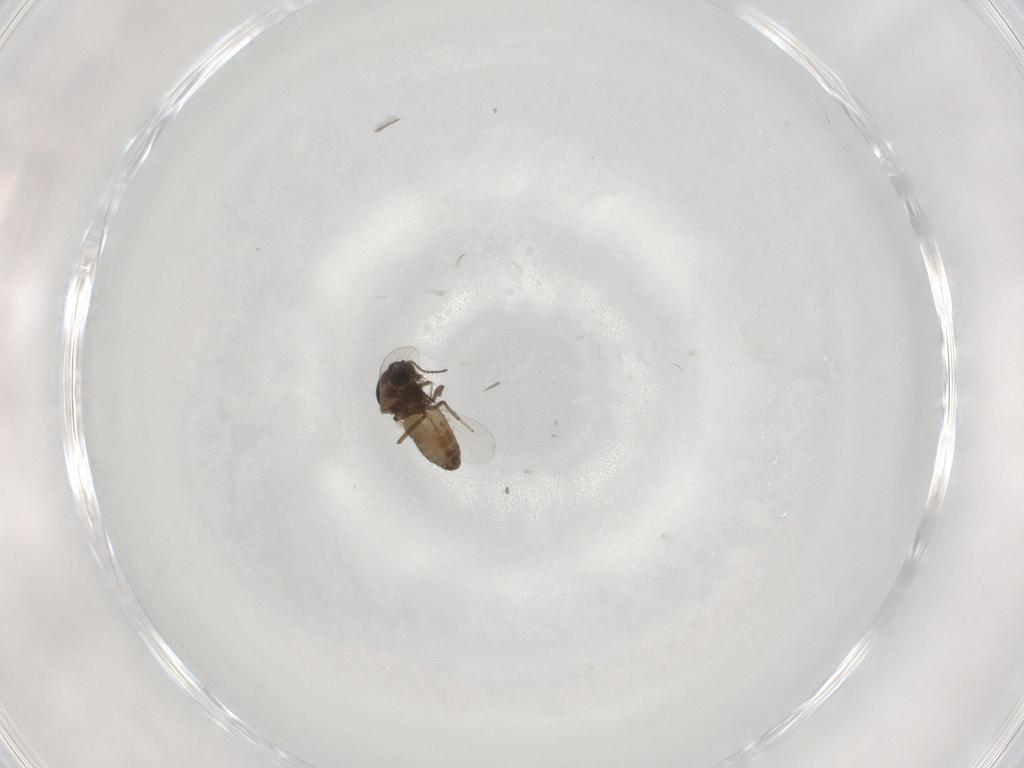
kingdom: Animalia
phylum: Arthropoda
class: Insecta
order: Diptera
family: Ceratopogonidae
